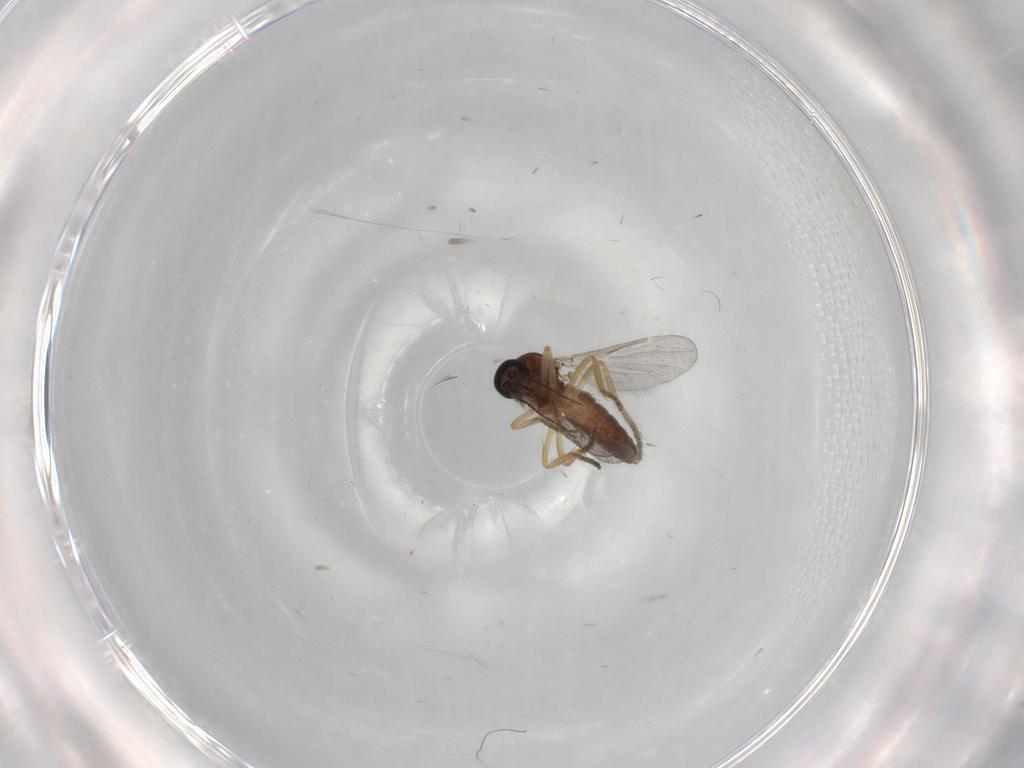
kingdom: Animalia
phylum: Arthropoda
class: Insecta
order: Diptera
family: Ceratopogonidae
